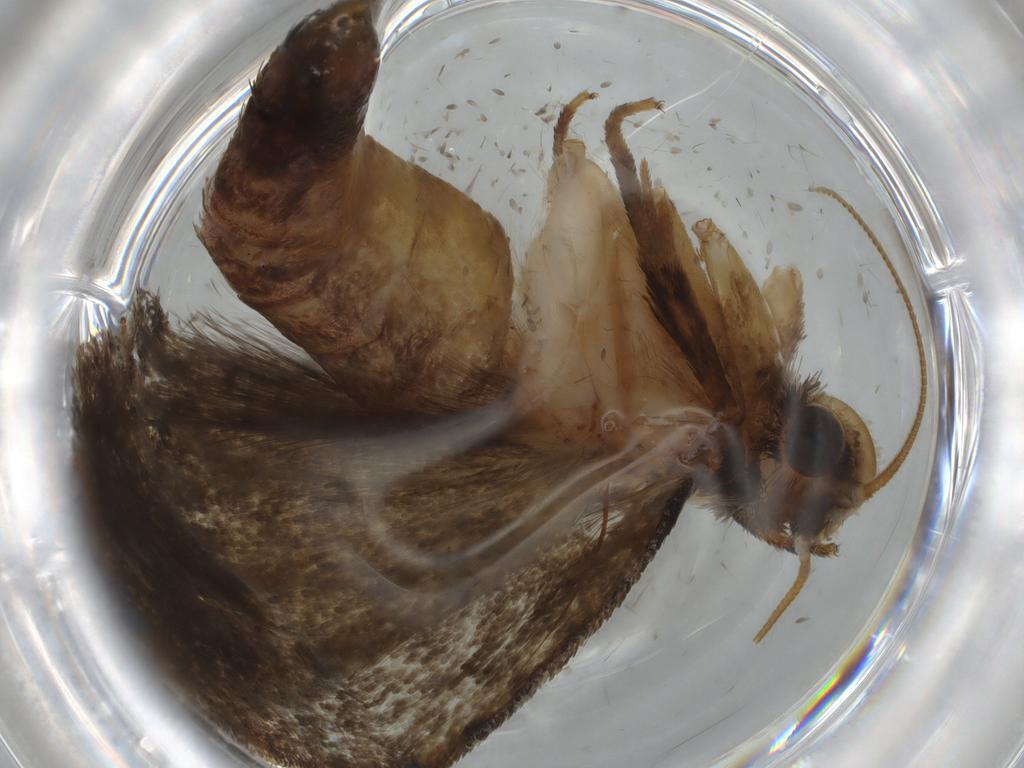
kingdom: Animalia
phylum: Arthropoda
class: Insecta
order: Lepidoptera
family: Tineidae
